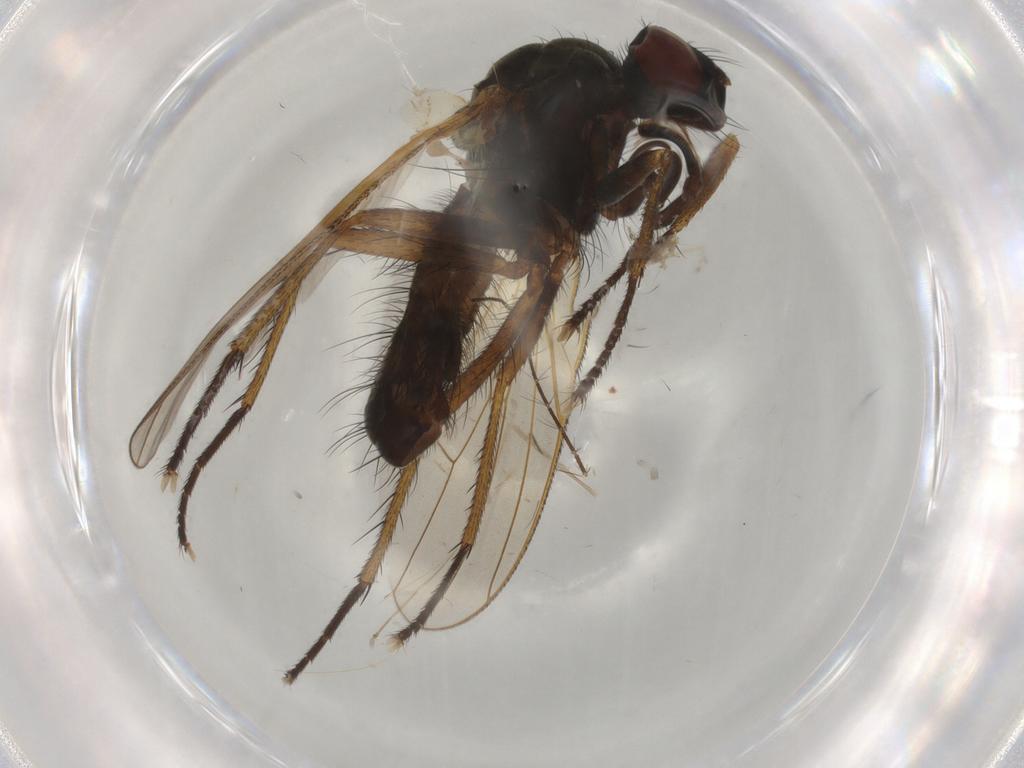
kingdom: Animalia
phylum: Arthropoda
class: Insecta
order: Diptera
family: Anthomyiidae
